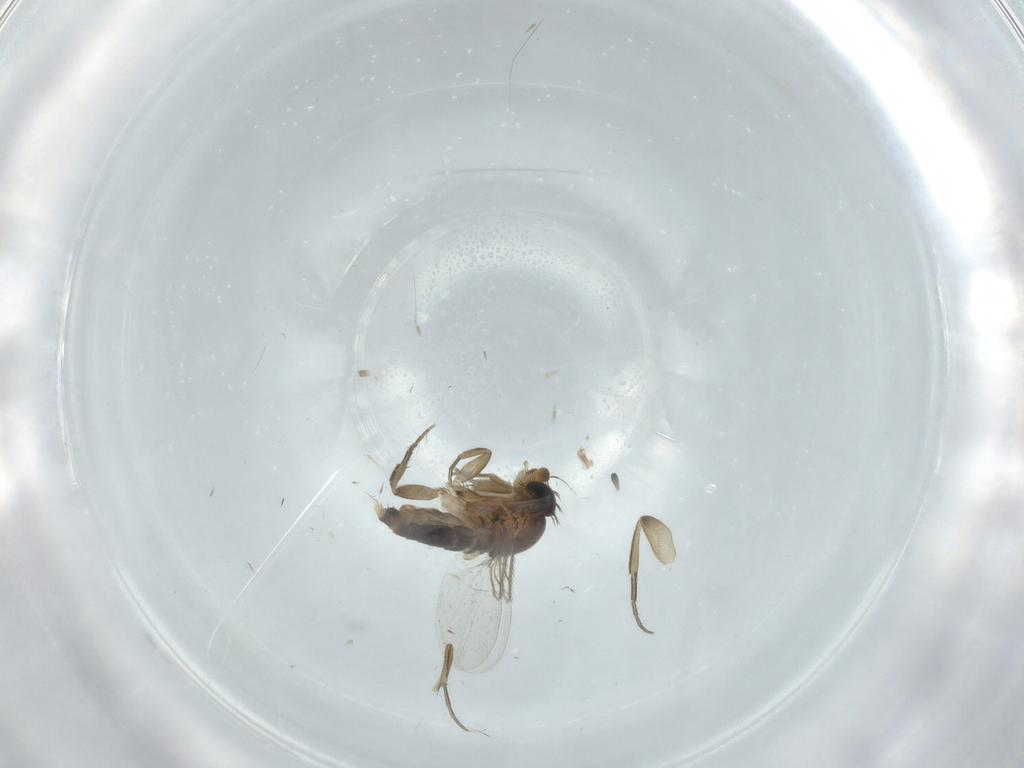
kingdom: Animalia
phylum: Arthropoda
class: Insecta
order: Diptera
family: Phoridae
